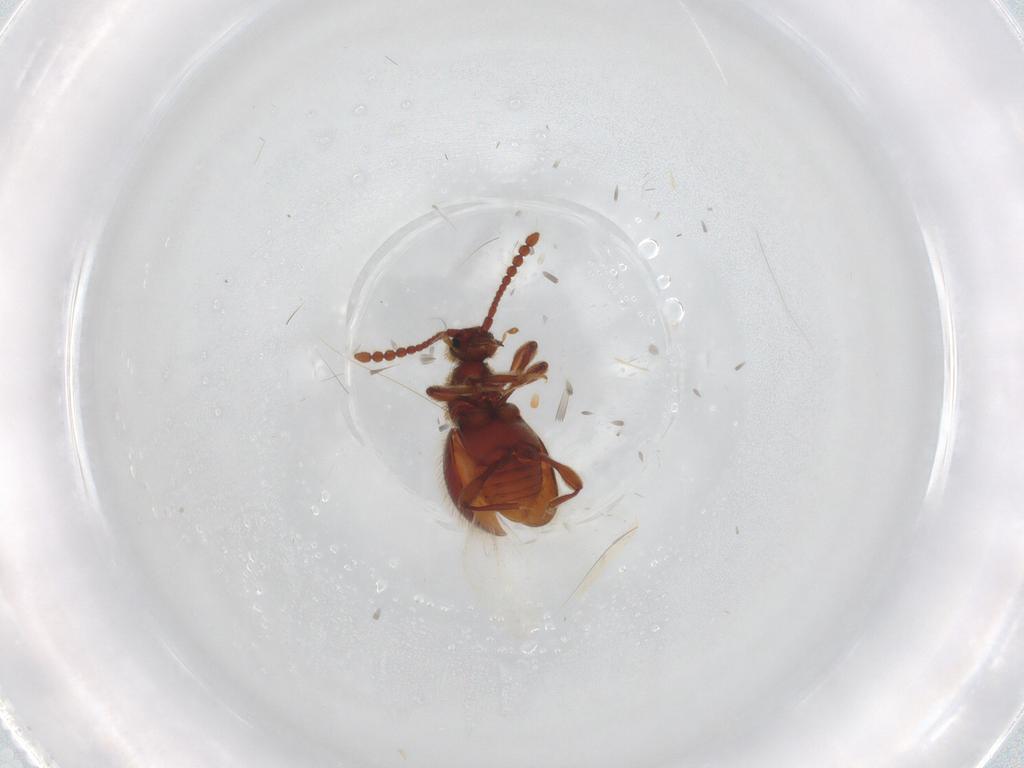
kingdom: Animalia
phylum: Arthropoda
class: Insecta
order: Coleoptera
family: Staphylinidae
